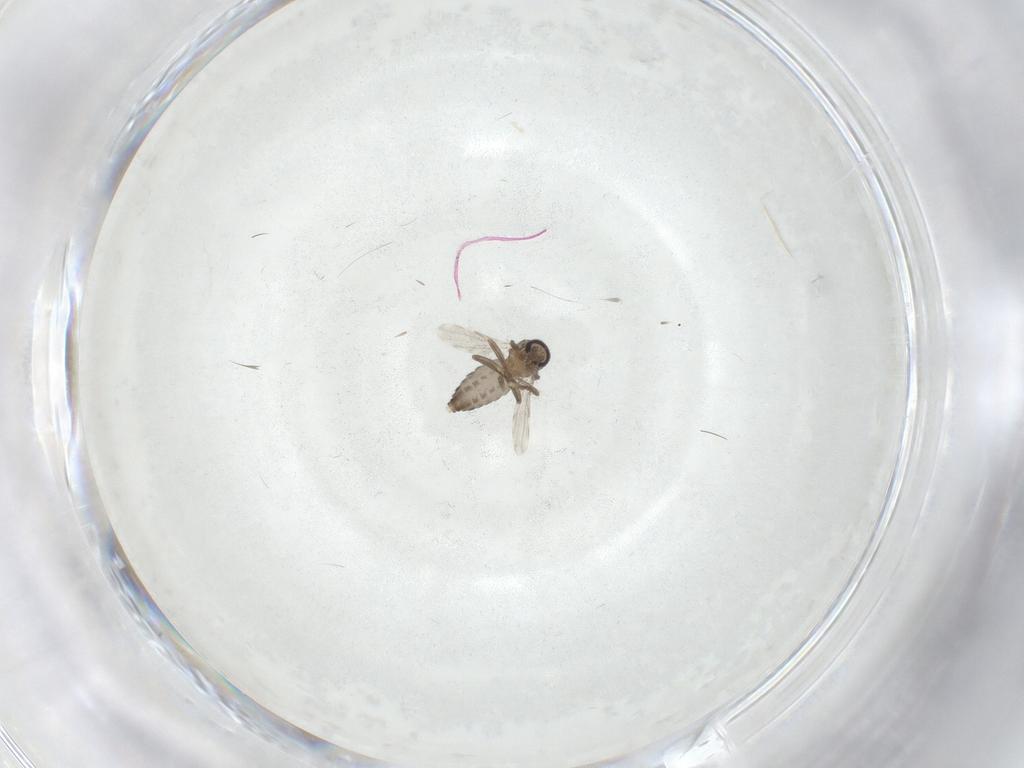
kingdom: Animalia
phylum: Arthropoda
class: Insecta
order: Diptera
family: Ceratopogonidae
